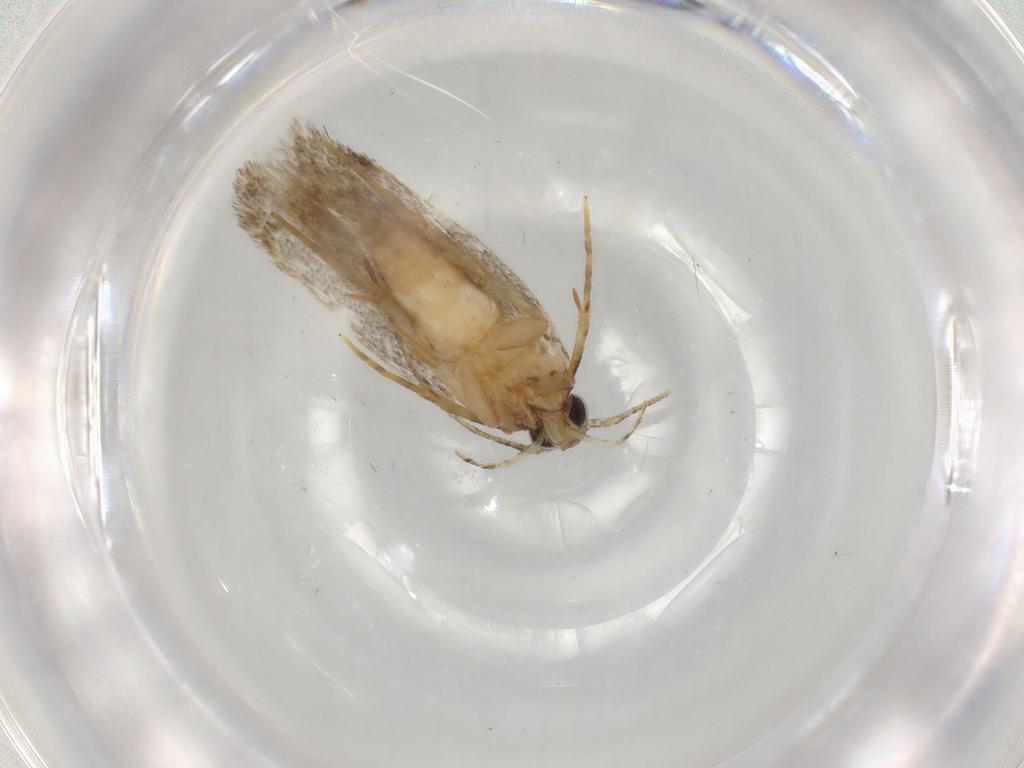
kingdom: Animalia
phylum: Arthropoda
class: Insecta
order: Lepidoptera
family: Autostichidae
